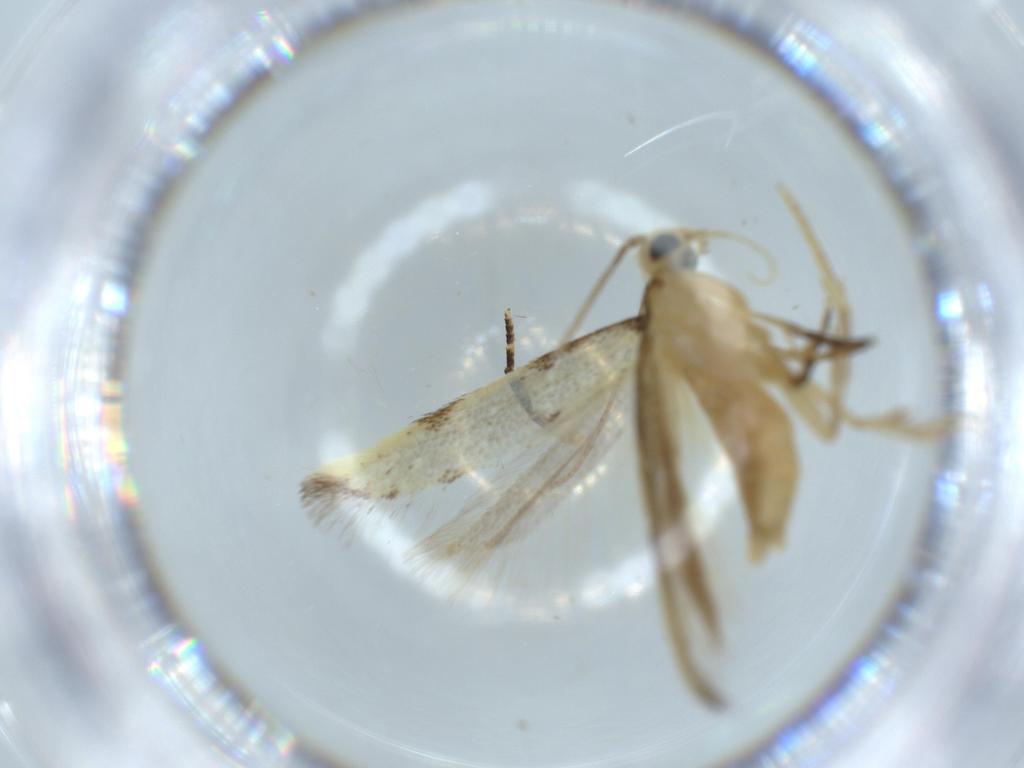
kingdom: Animalia
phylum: Arthropoda
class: Insecta
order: Lepidoptera
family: Autostichidae
